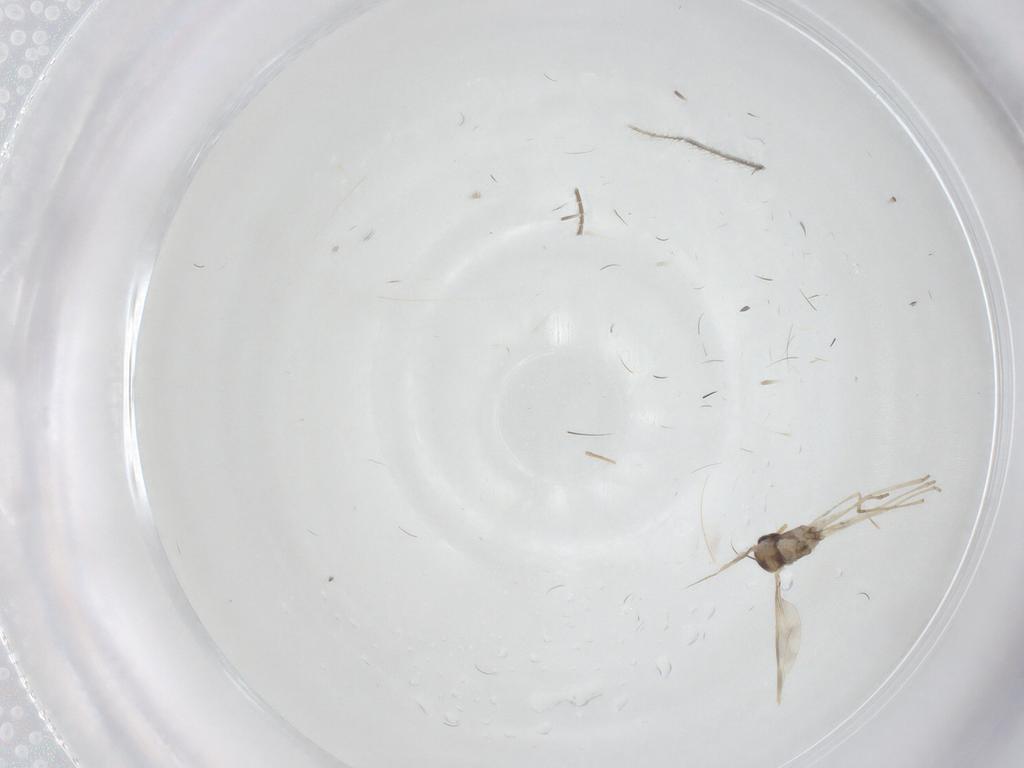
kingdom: Animalia
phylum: Arthropoda
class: Insecta
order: Diptera
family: Cecidomyiidae
